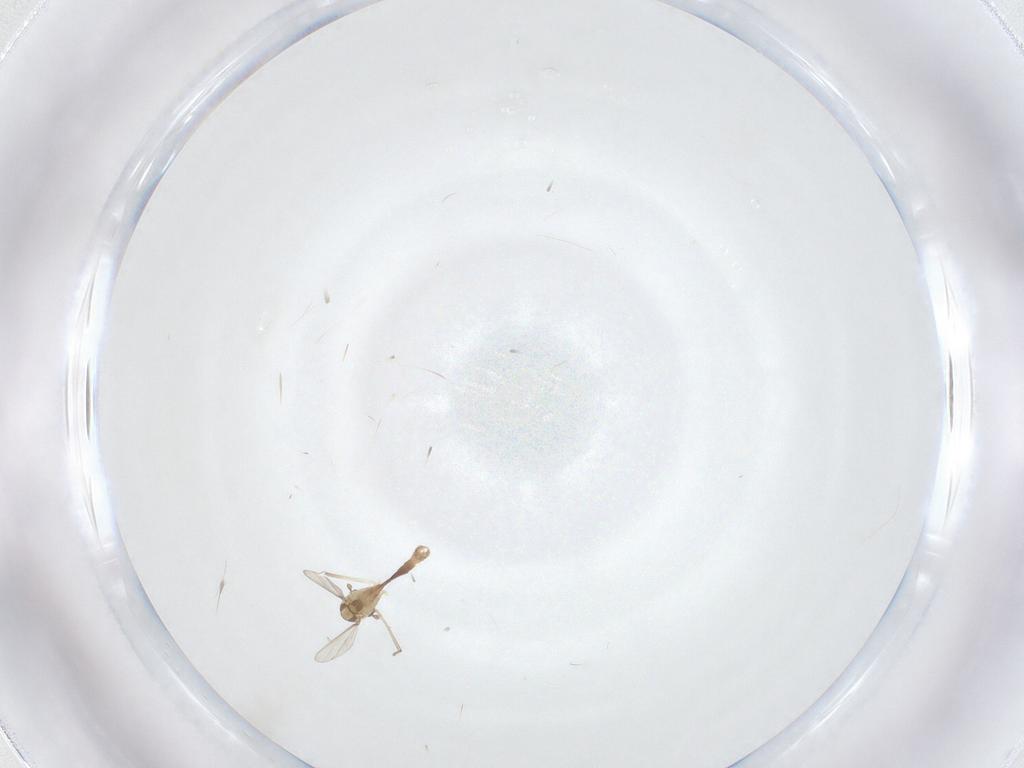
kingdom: Animalia
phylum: Arthropoda
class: Insecta
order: Diptera
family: Chironomidae
